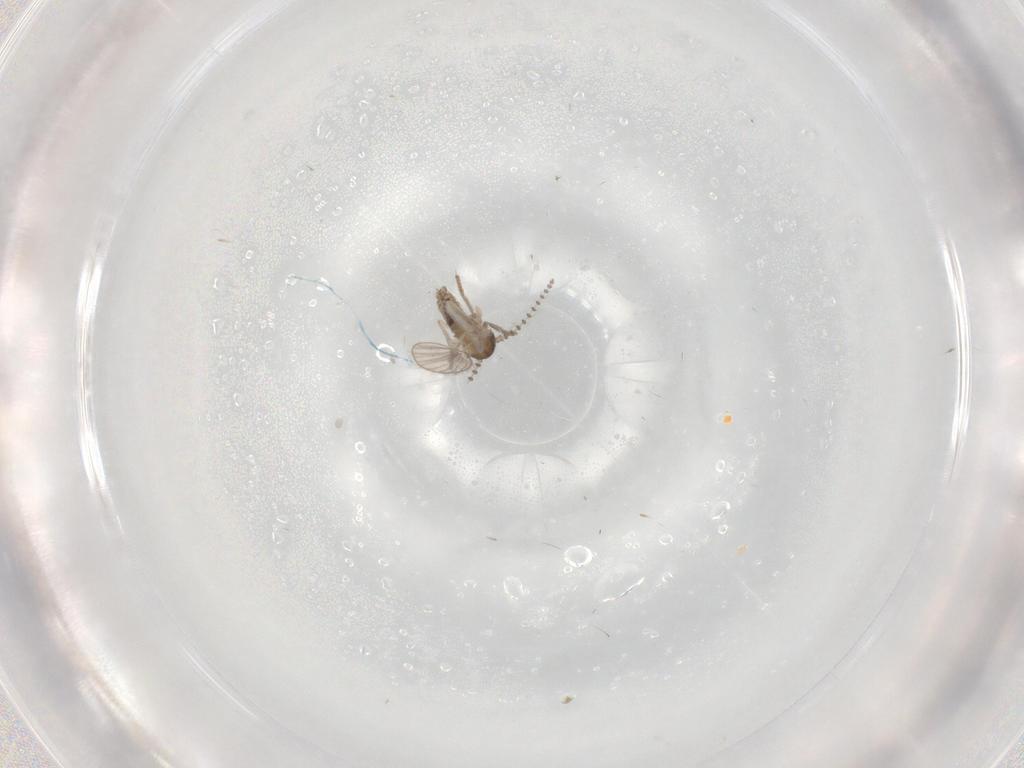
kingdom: Animalia
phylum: Arthropoda
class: Insecta
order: Diptera
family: Psychodidae
